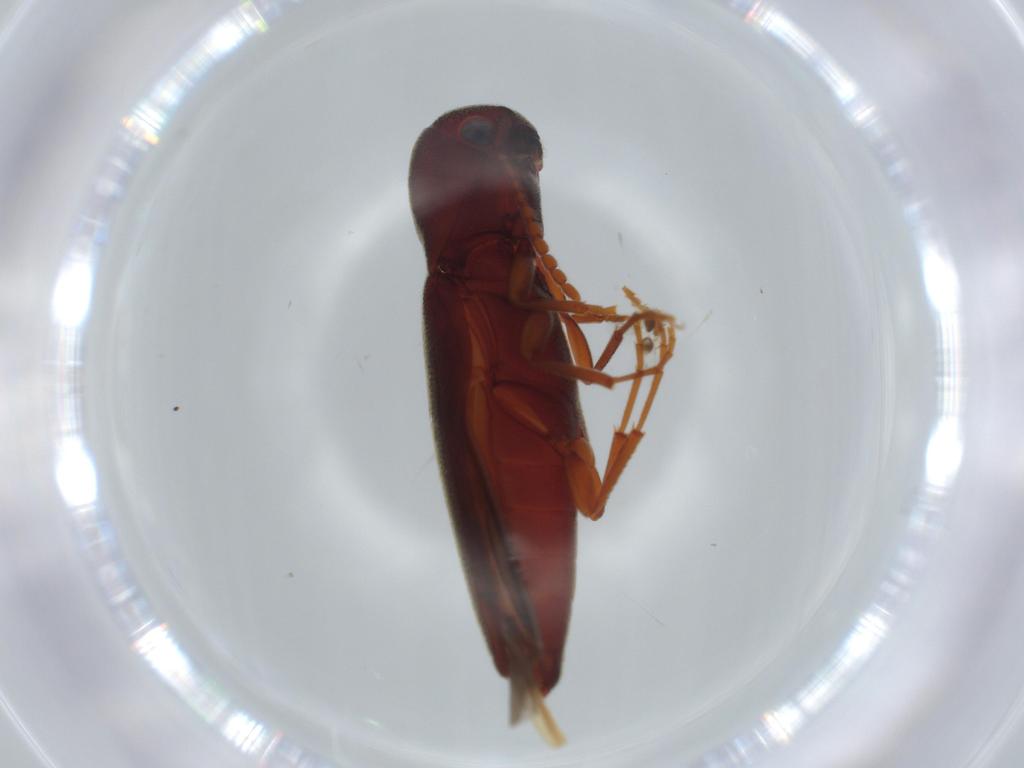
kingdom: Animalia
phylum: Arthropoda
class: Insecta
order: Coleoptera
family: Eucnemidae
